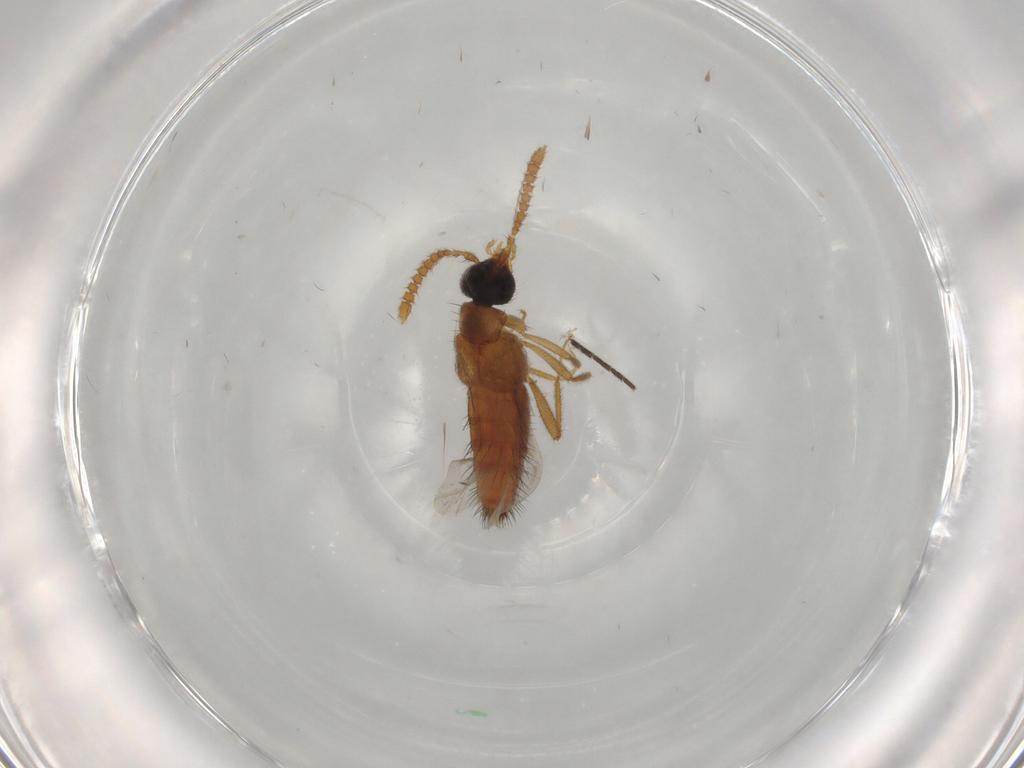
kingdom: Animalia
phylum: Arthropoda
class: Insecta
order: Coleoptera
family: Staphylinidae
